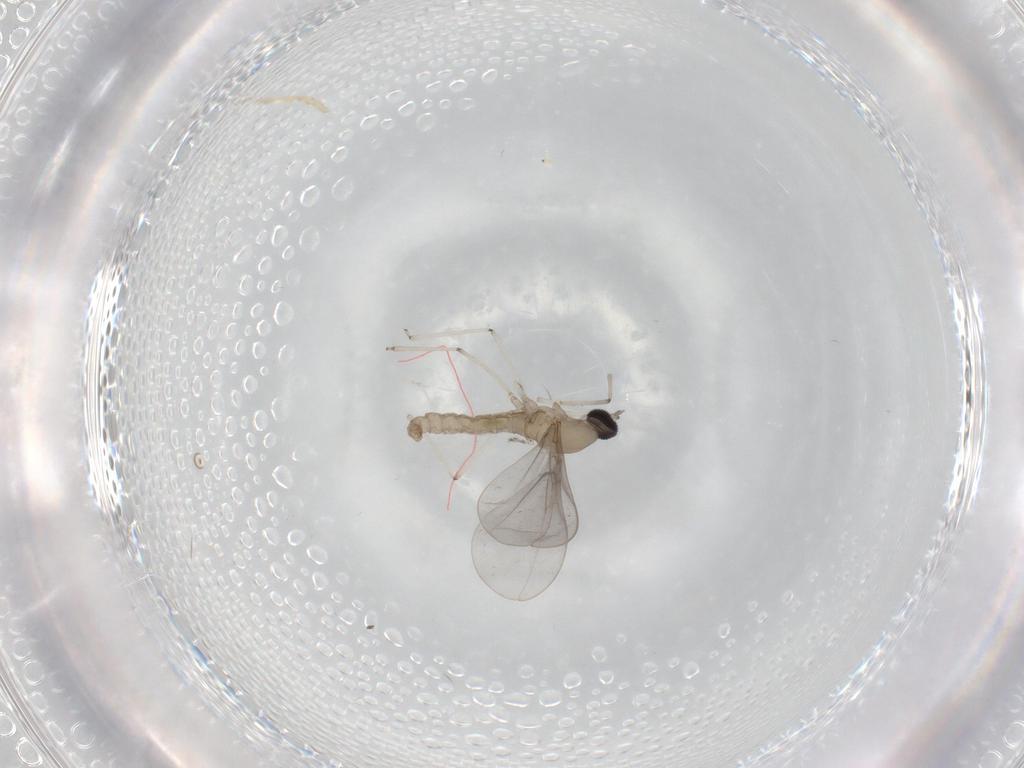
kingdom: Animalia
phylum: Arthropoda
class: Insecta
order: Diptera
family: Cecidomyiidae
